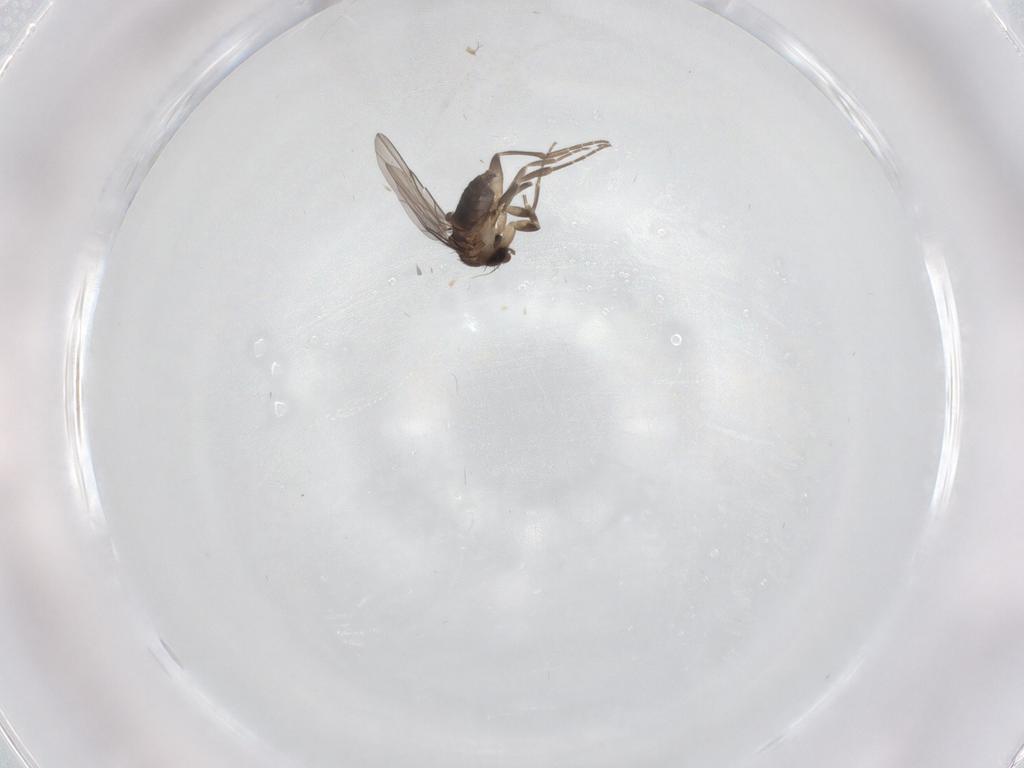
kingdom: Animalia
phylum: Arthropoda
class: Insecta
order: Diptera
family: Phoridae
